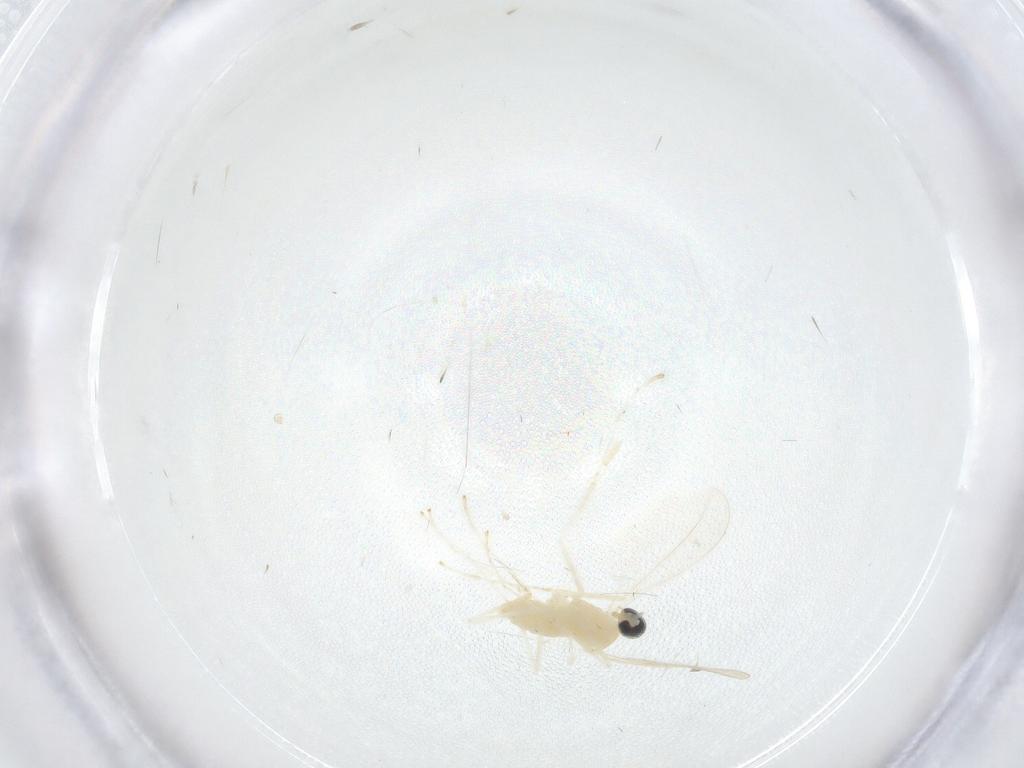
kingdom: Animalia
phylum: Arthropoda
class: Insecta
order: Diptera
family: Cecidomyiidae
